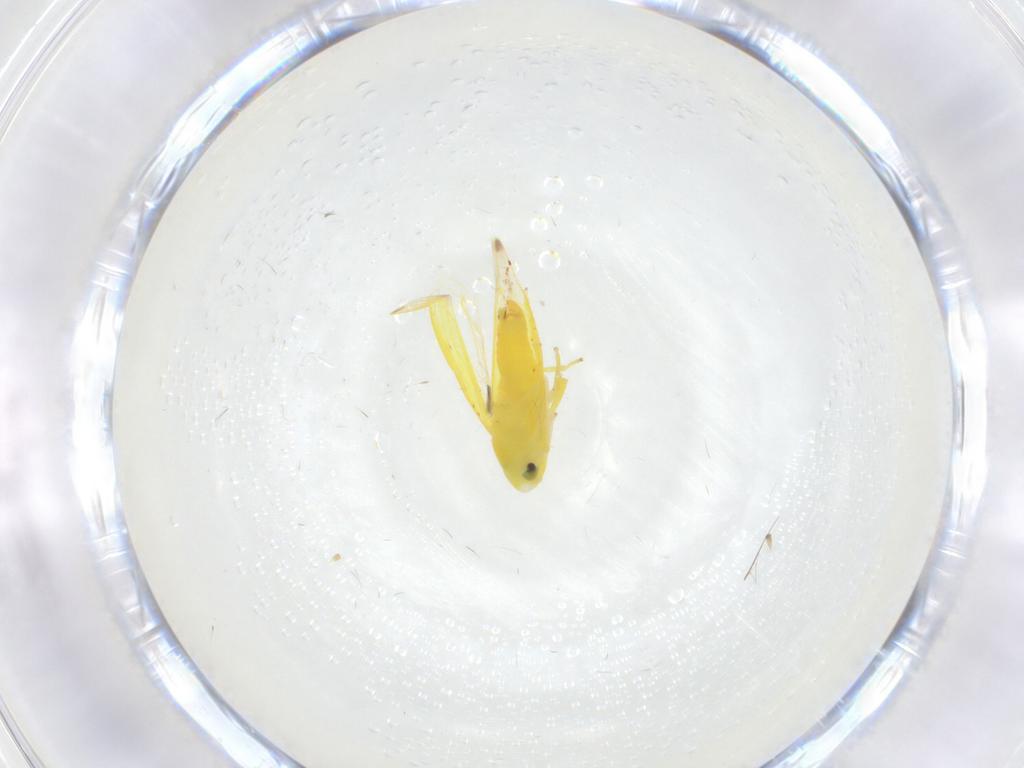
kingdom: Animalia
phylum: Arthropoda
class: Insecta
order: Hemiptera
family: Cicadellidae
